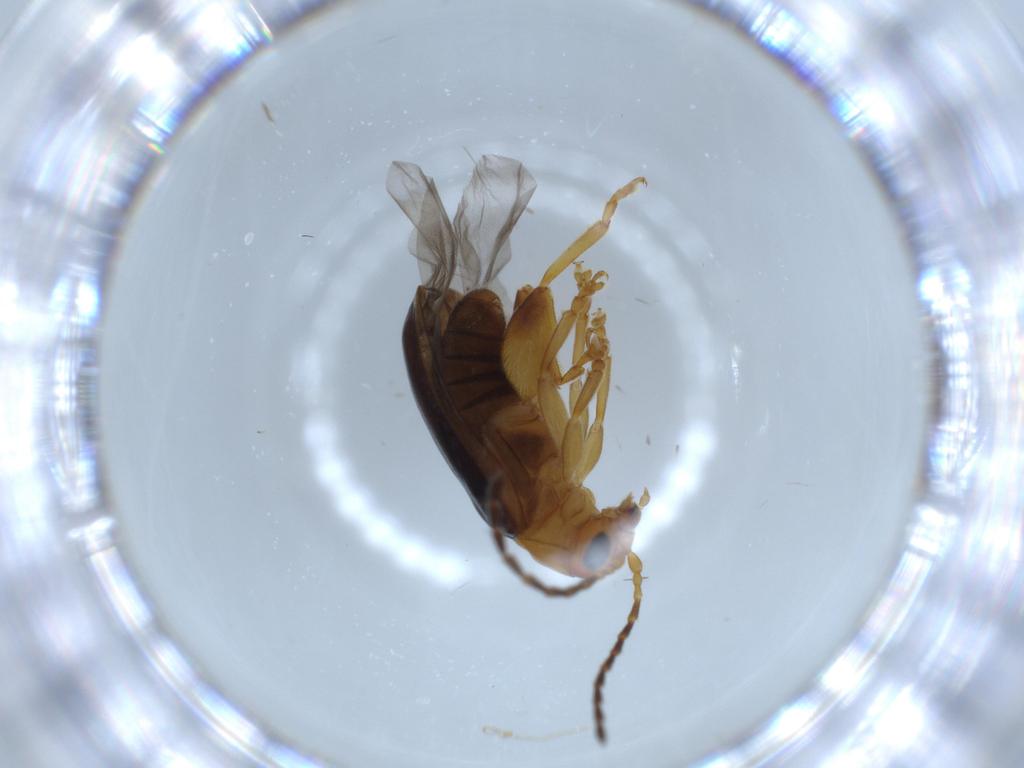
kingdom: Animalia
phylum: Arthropoda
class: Insecta
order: Coleoptera
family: Chrysomelidae
